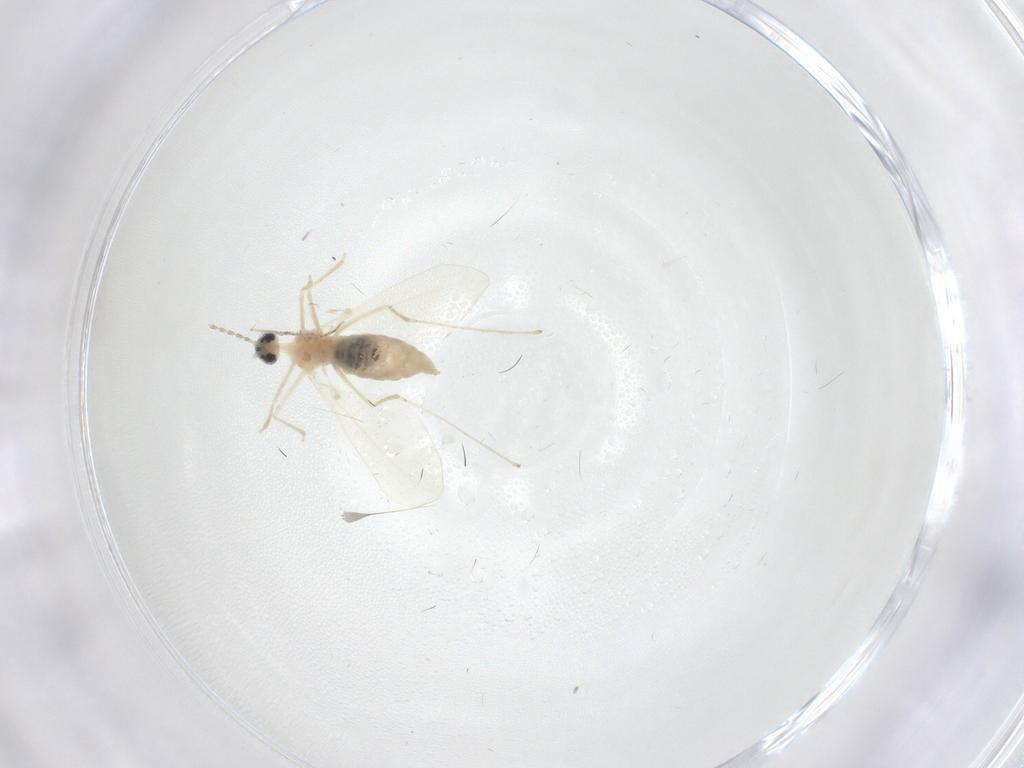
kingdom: Animalia
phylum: Arthropoda
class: Insecta
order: Diptera
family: Cecidomyiidae
